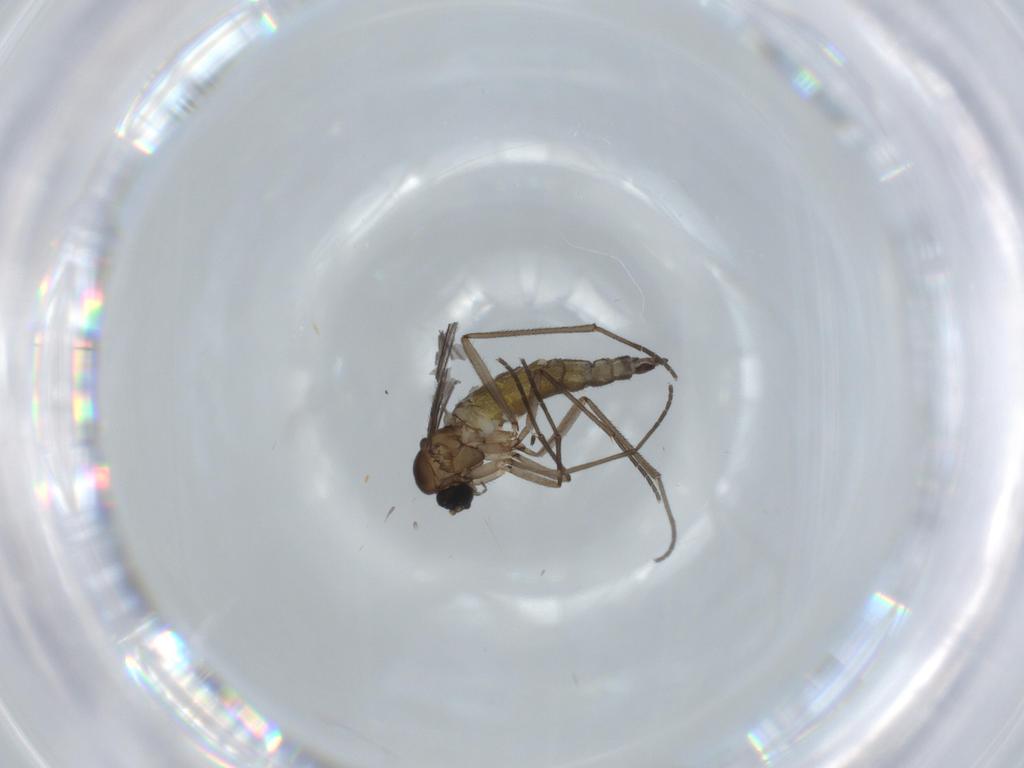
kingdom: Animalia
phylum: Arthropoda
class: Insecta
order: Diptera
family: Sciaridae
